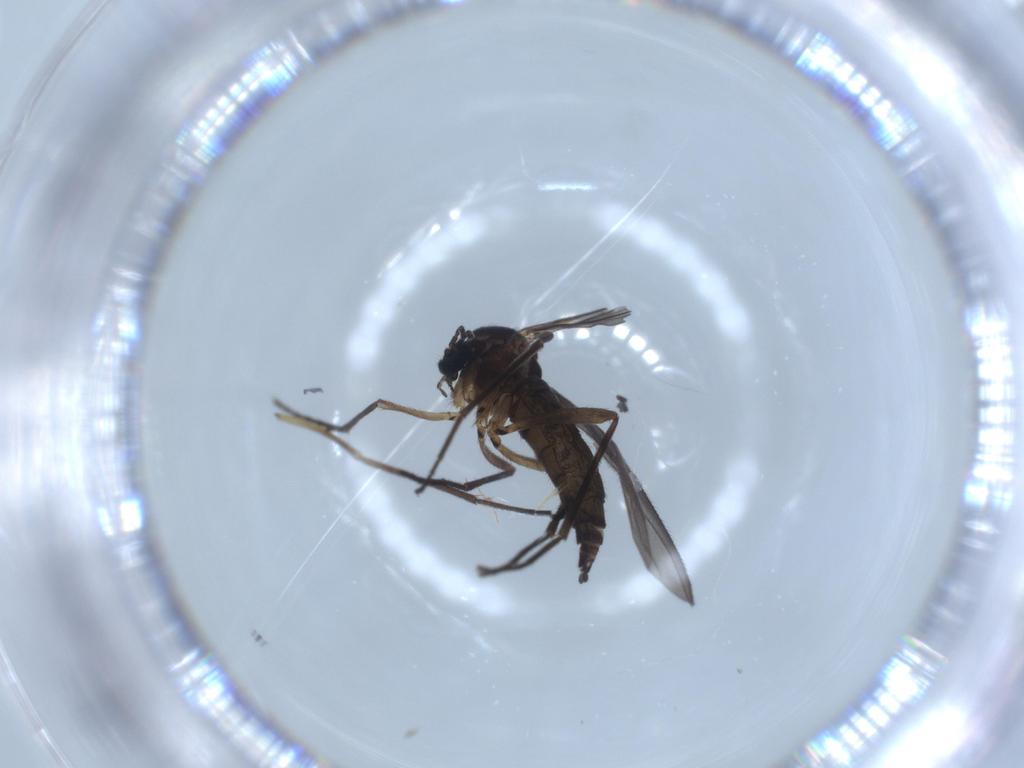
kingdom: Animalia
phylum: Arthropoda
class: Insecta
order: Diptera
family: Sciaridae
